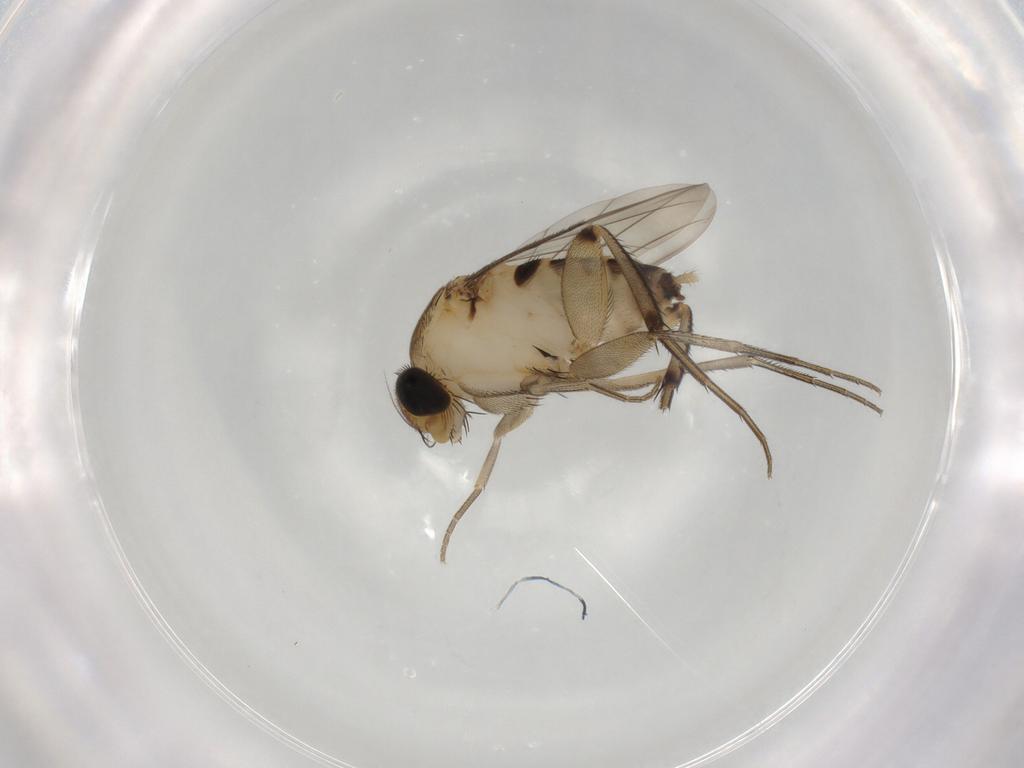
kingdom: Animalia
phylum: Arthropoda
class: Insecta
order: Diptera
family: Phoridae
